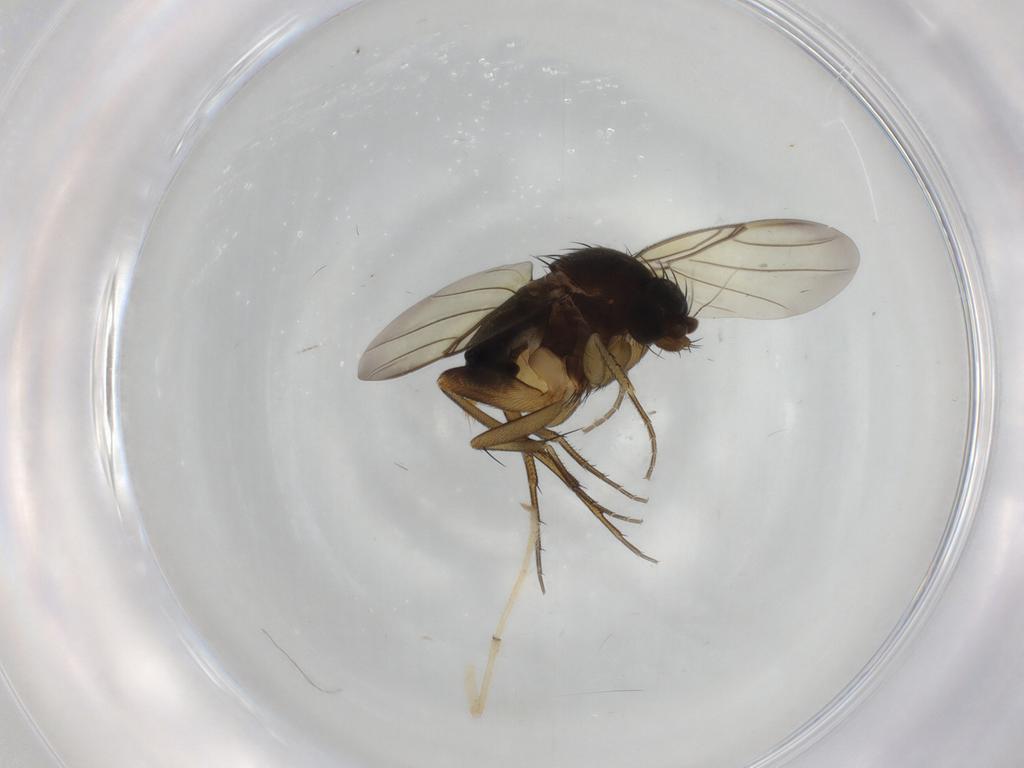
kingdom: Animalia
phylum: Arthropoda
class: Insecta
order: Diptera
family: Phoridae
